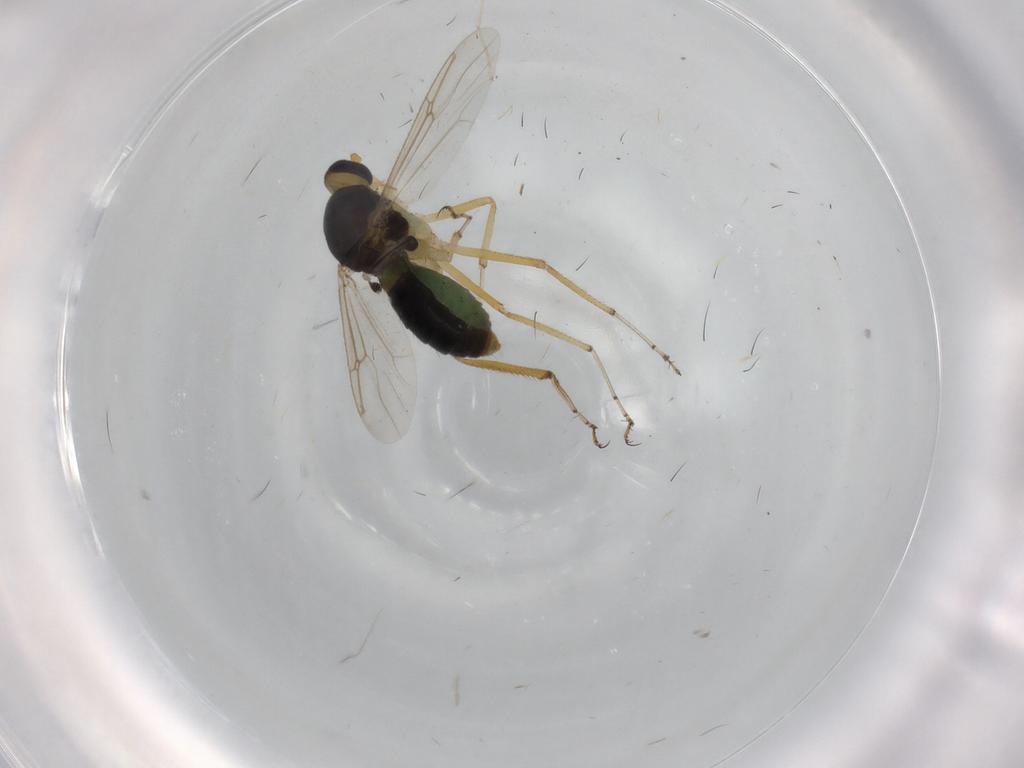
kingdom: Animalia
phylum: Arthropoda
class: Insecta
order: Diptera
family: Ceratopogonidae
